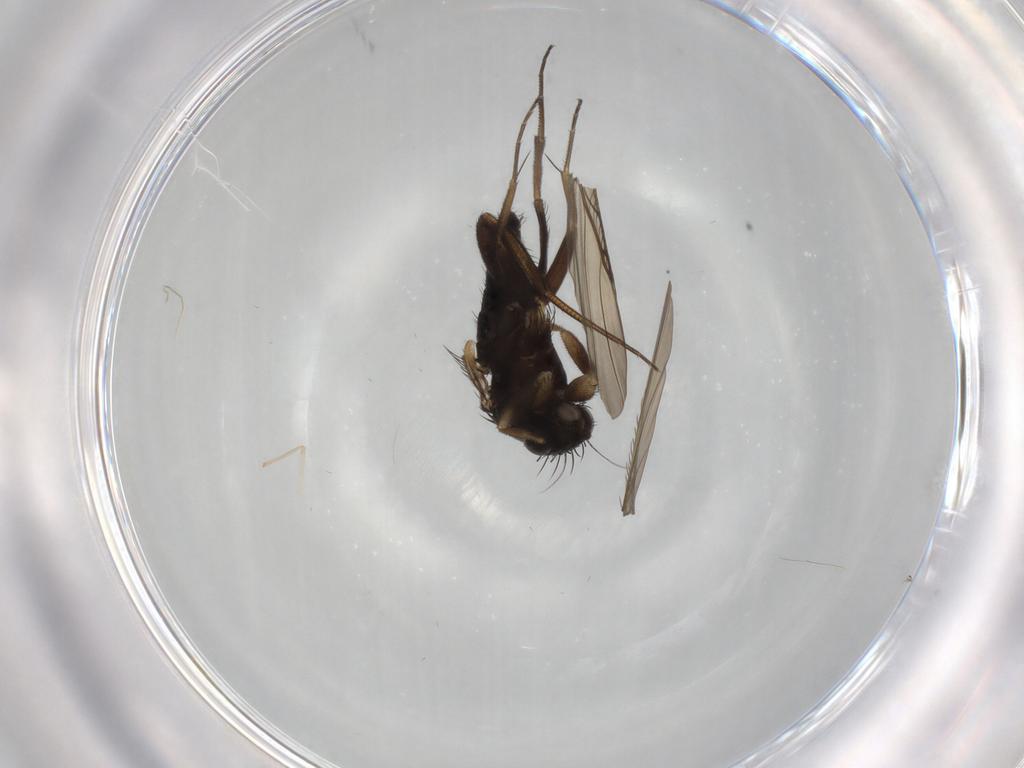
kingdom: Animalia
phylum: Arthropoda
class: Insecta
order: Diptera
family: Phoridae
